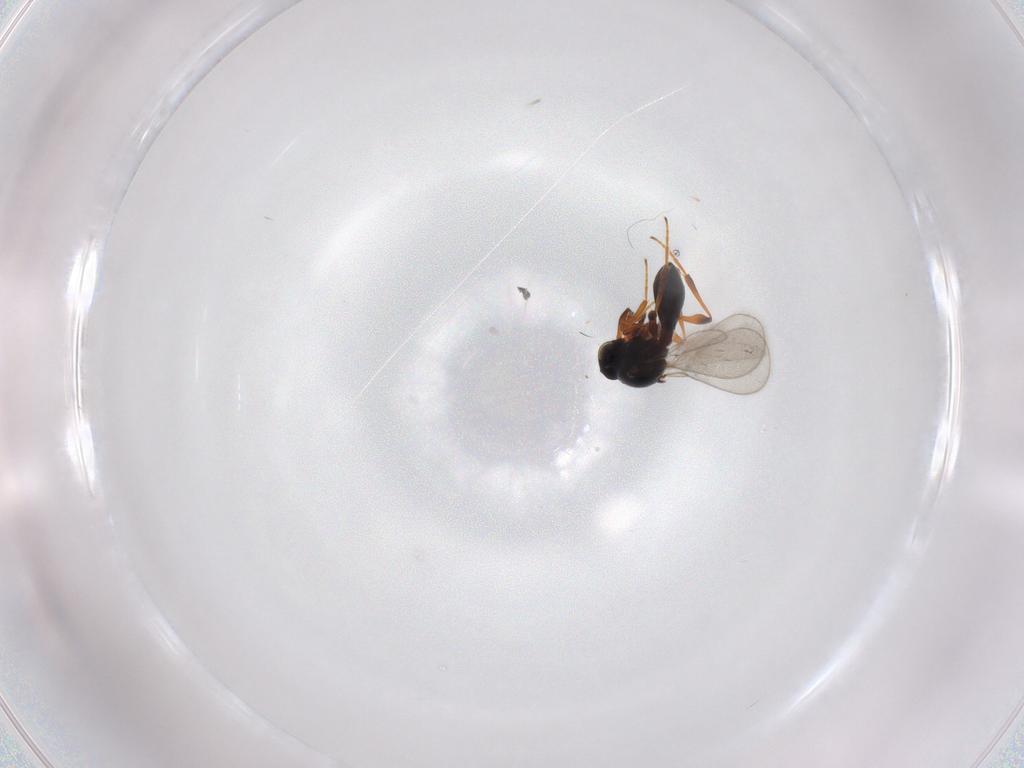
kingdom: Animalia
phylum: Arthropoda
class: Insecta
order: Hymenoptera
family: Platygastridae
